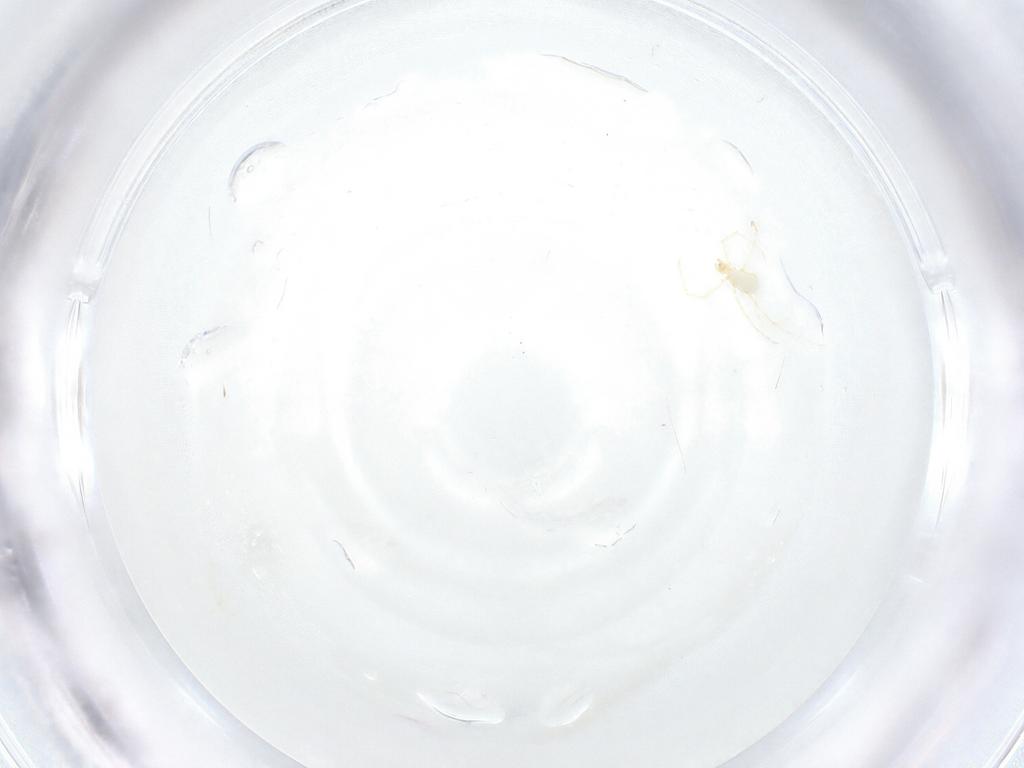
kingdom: Animalia
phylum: Arthropoda
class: Arachnida
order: Trombidiformes
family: Erythraeidae
